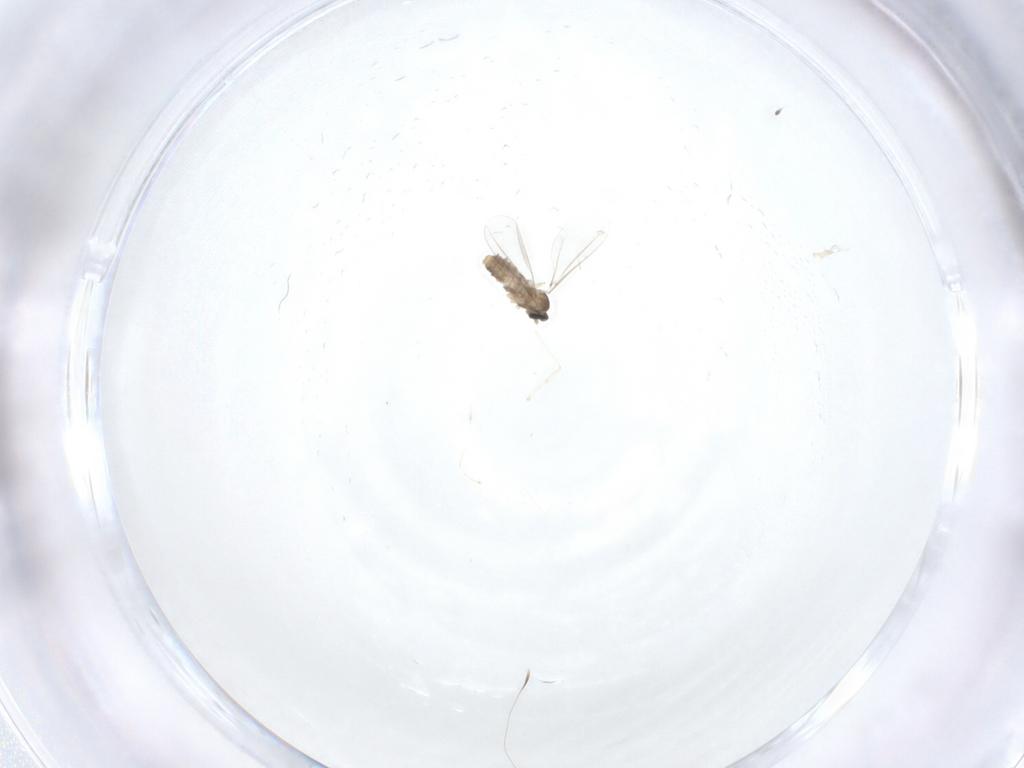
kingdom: Animalia
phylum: Arthropoda
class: Insecta
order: Diptera
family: Cecidomyiidae
